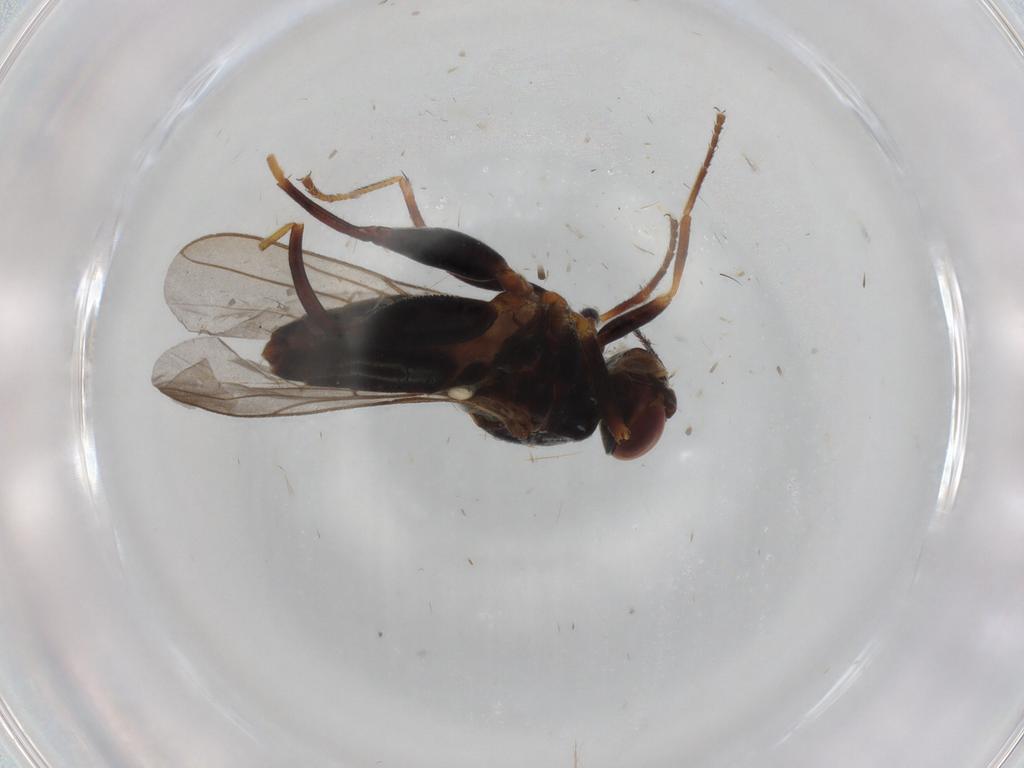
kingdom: Animalia
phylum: Arthropoda
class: Insecta
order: Diptera
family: Chloropidae
